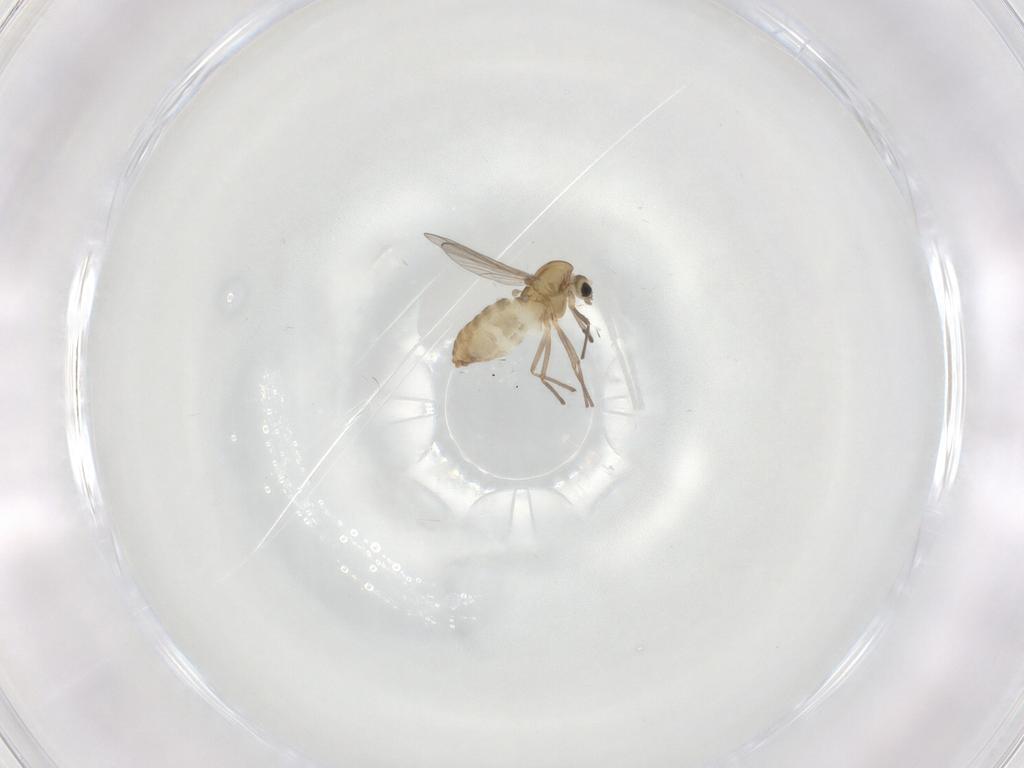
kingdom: Animalia
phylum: Arthropoda
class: Insecta
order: Diptera
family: Chironomidae
